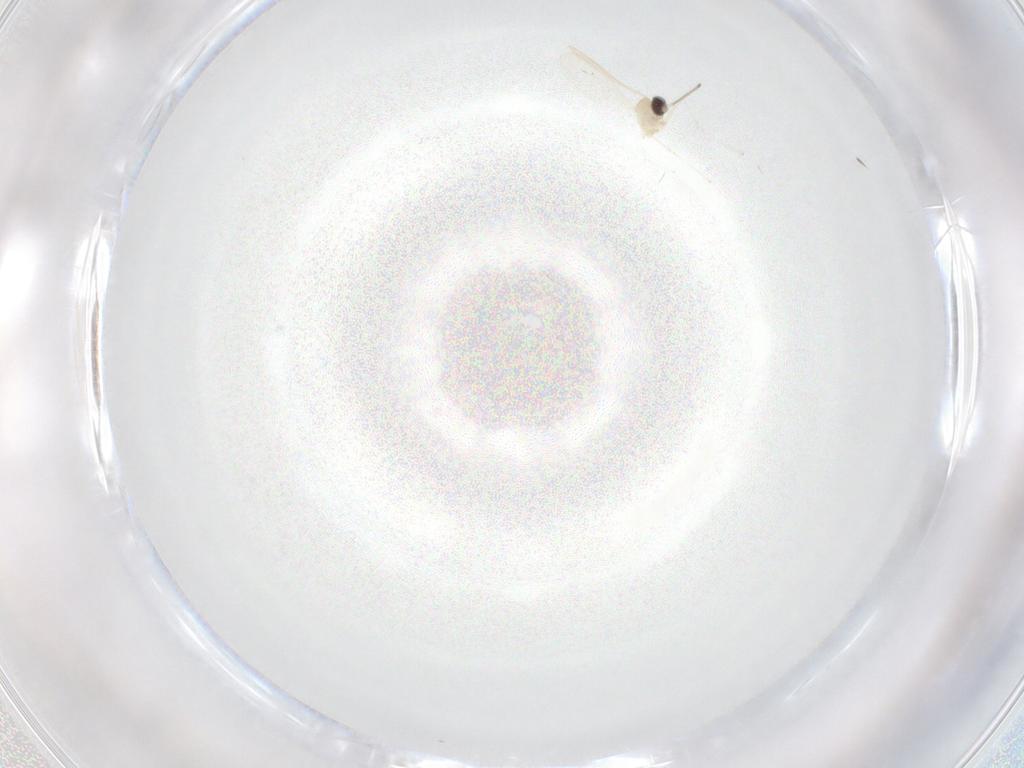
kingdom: Animalia
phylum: Arthropoda
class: Insecta
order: Diptera
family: Cecidomyiidae
